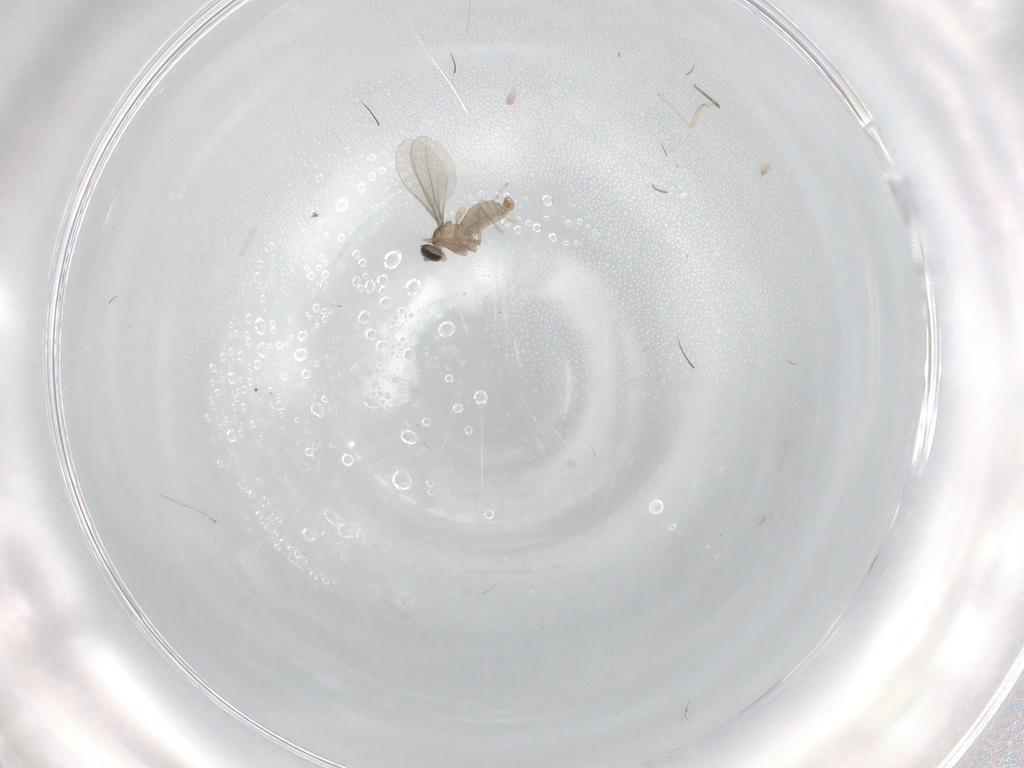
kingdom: Animalia
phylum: Arthropoda
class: Insecta
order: Diptera
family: Cecidomyiidae
